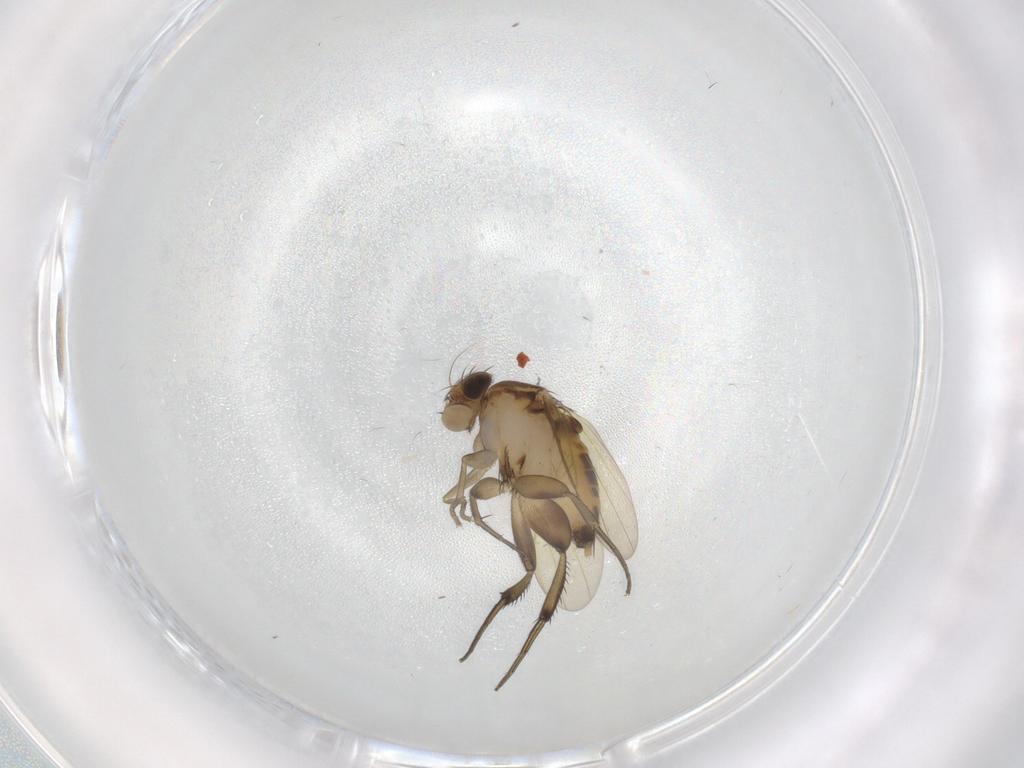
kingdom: Animalia
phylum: Arthropoda
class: Insecta
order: Diptera
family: Phoridae
